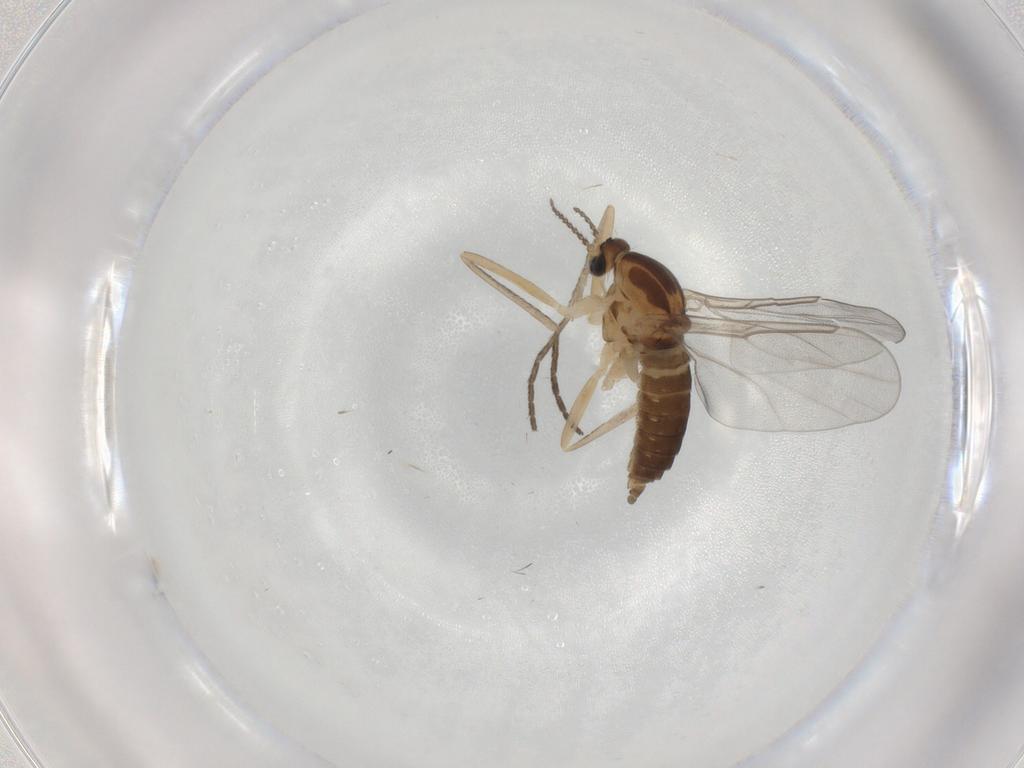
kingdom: Animalia
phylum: Arthropoda
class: Insecta
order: Diptera
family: Cecidomyiidae
